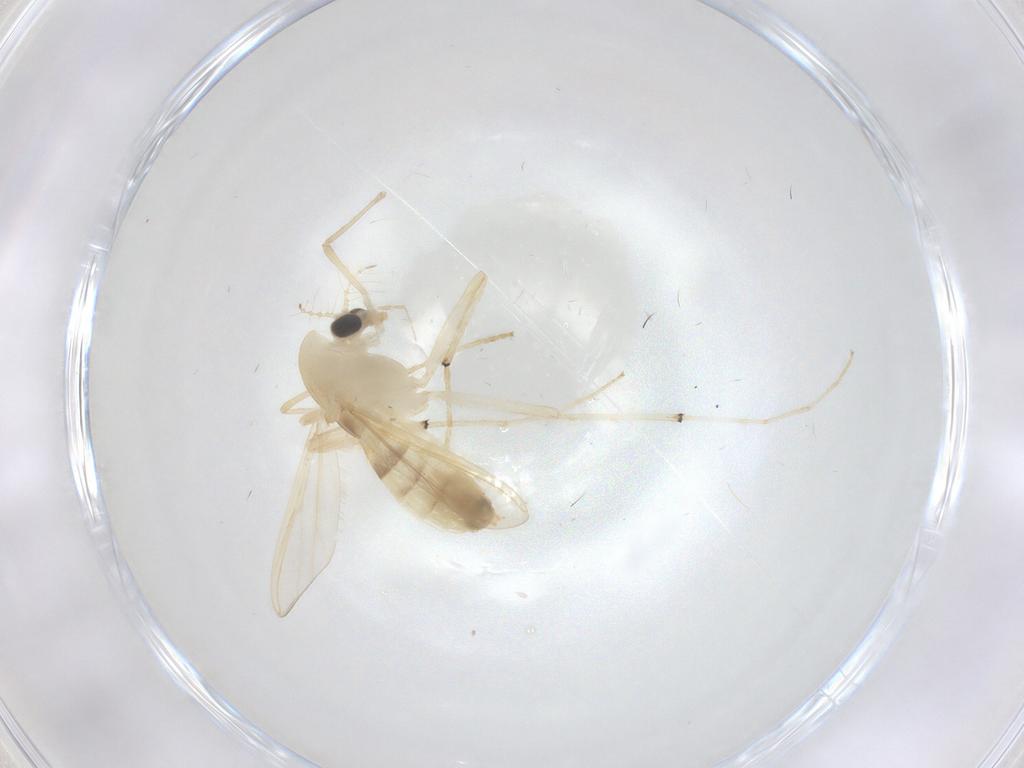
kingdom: Animalia
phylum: Arthropoda
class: Insecta
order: Diptera
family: Chironomidae
